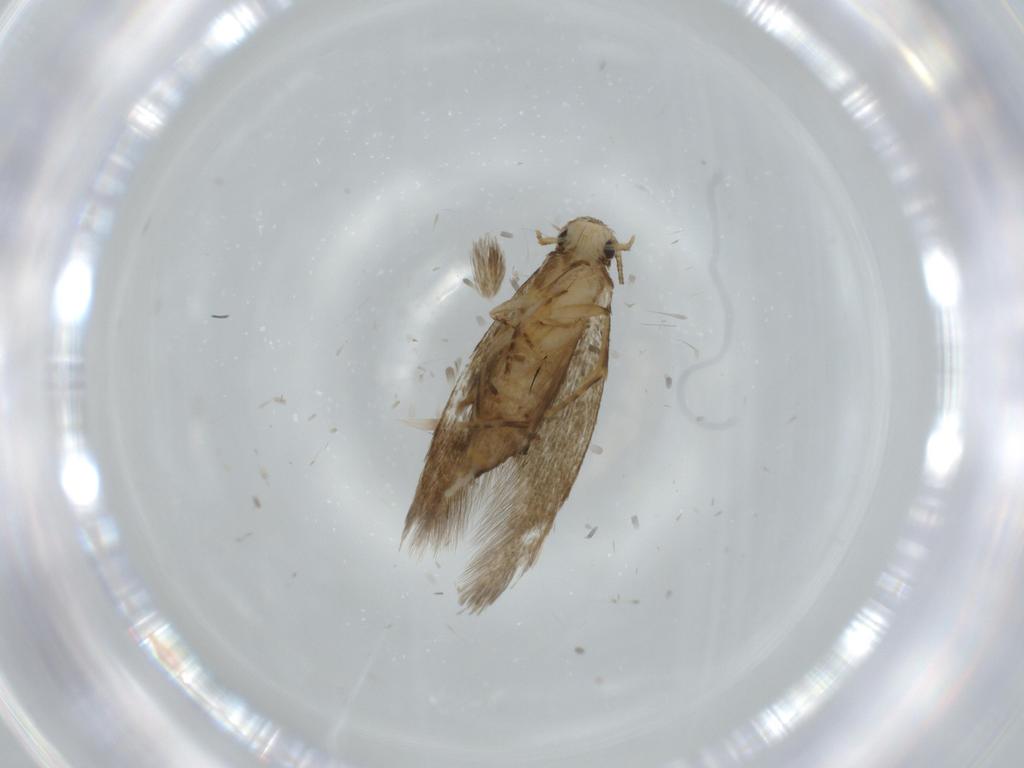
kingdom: Animalia
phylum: Arthropoda
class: Insecta
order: Lepidoptera
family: Tineidae
